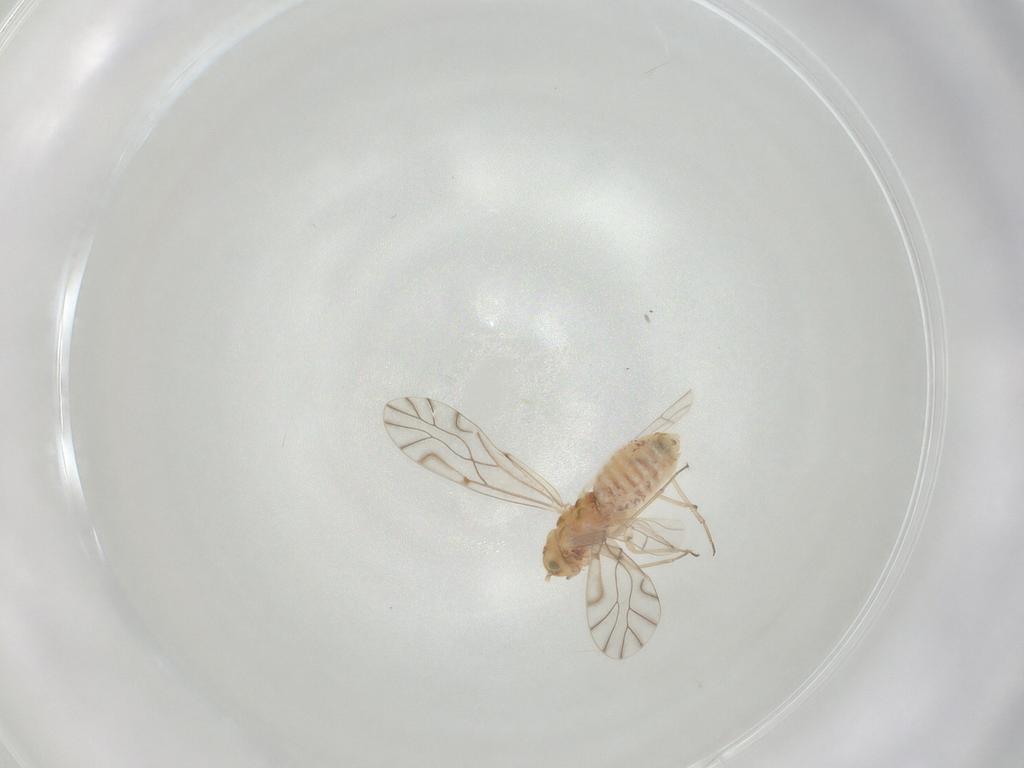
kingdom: Animalia
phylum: Arthropoda
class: Insecta
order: Psocodea
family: Lachesillidae
